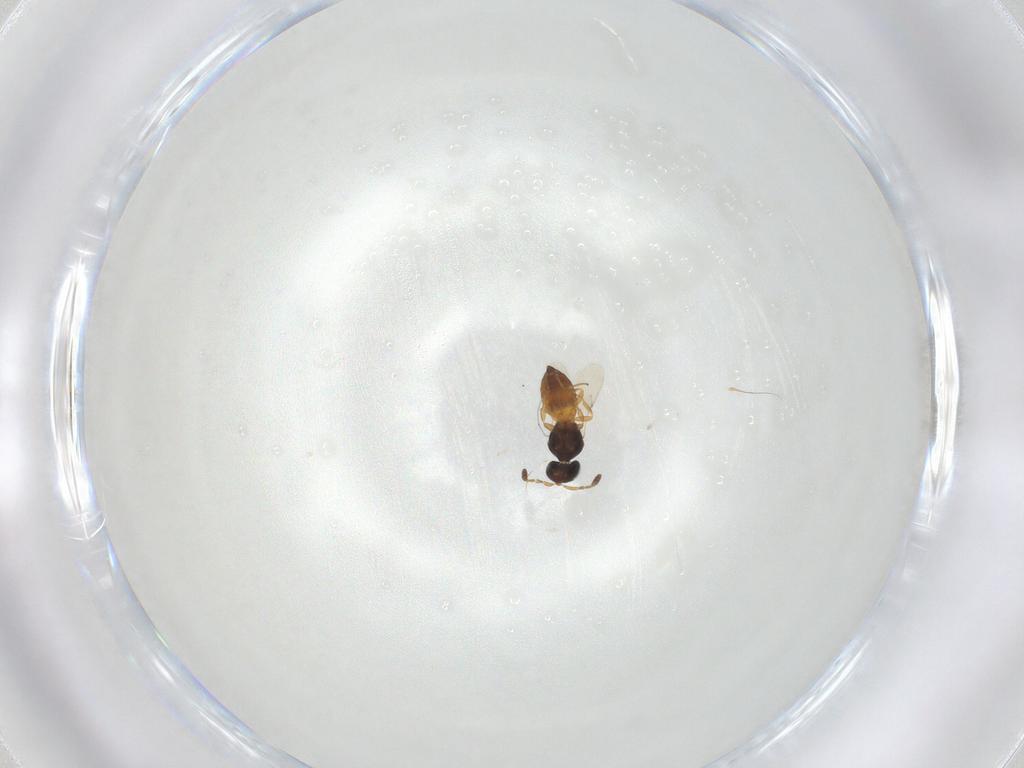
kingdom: Animalia
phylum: Arthropoda
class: Insecta
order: Hymenoptera
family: Scelionidae
